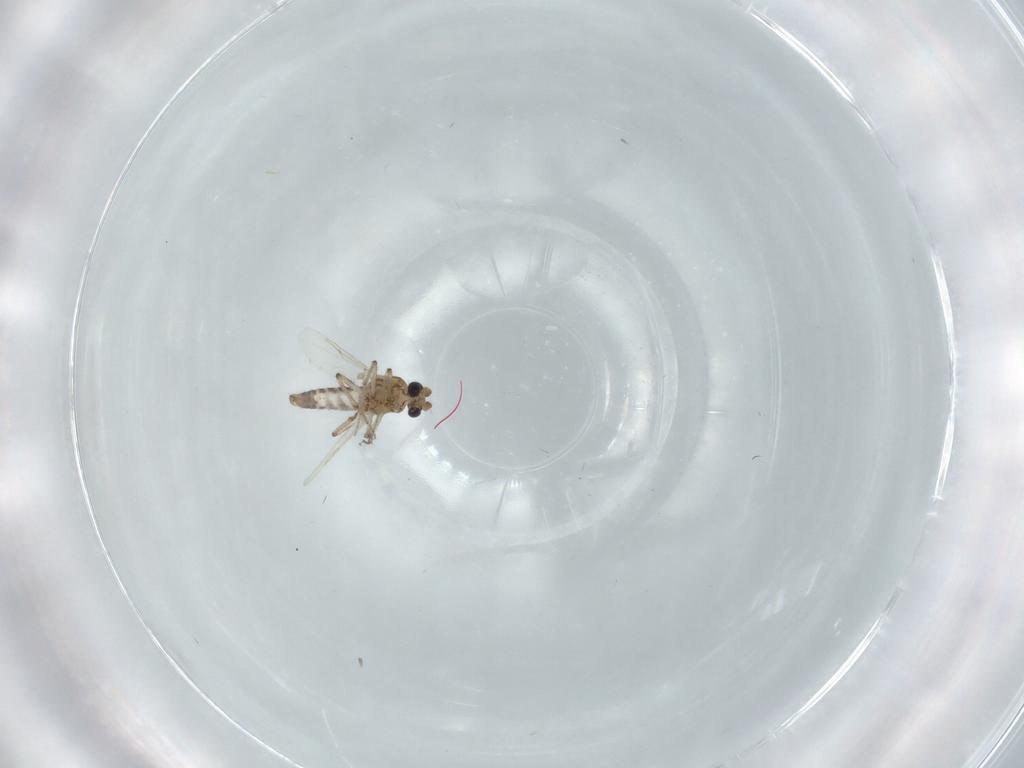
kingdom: Animalia
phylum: Arthropoda
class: Insecta
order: Diptera
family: Ceratopogonidae
